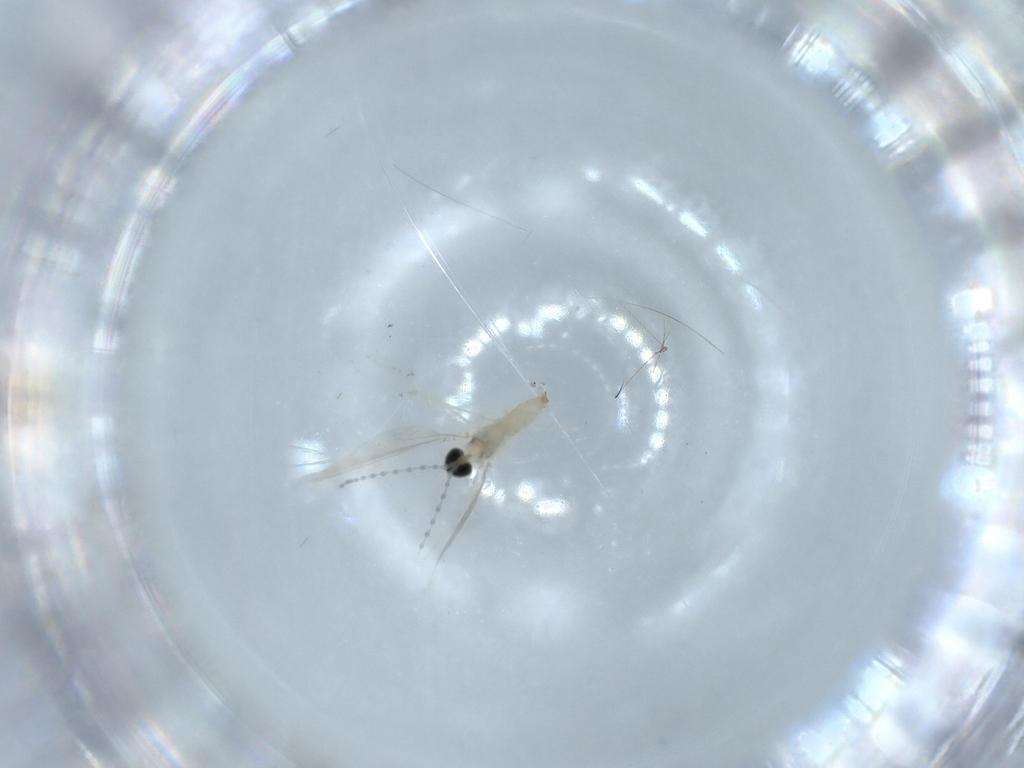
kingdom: Animalia
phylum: Arthropoda
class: Insecta
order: Diptera
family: Cecidomyiidae
